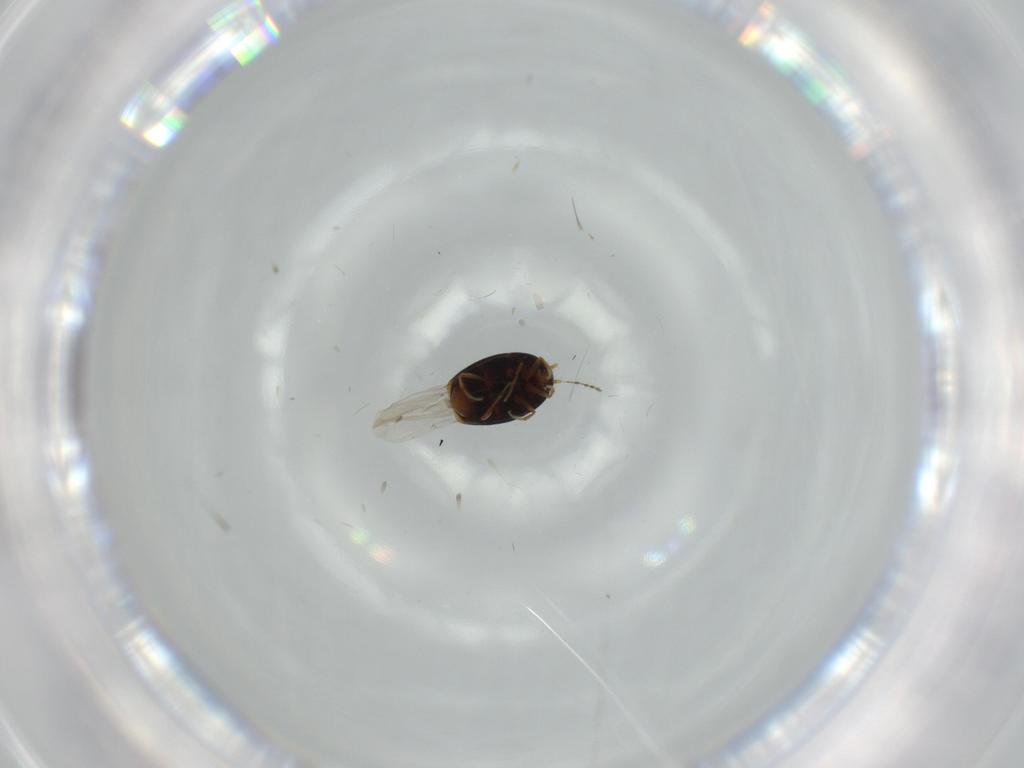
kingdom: Animalia
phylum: Arthropoda
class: Insecta
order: Coleoptera
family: Staphylinidae
